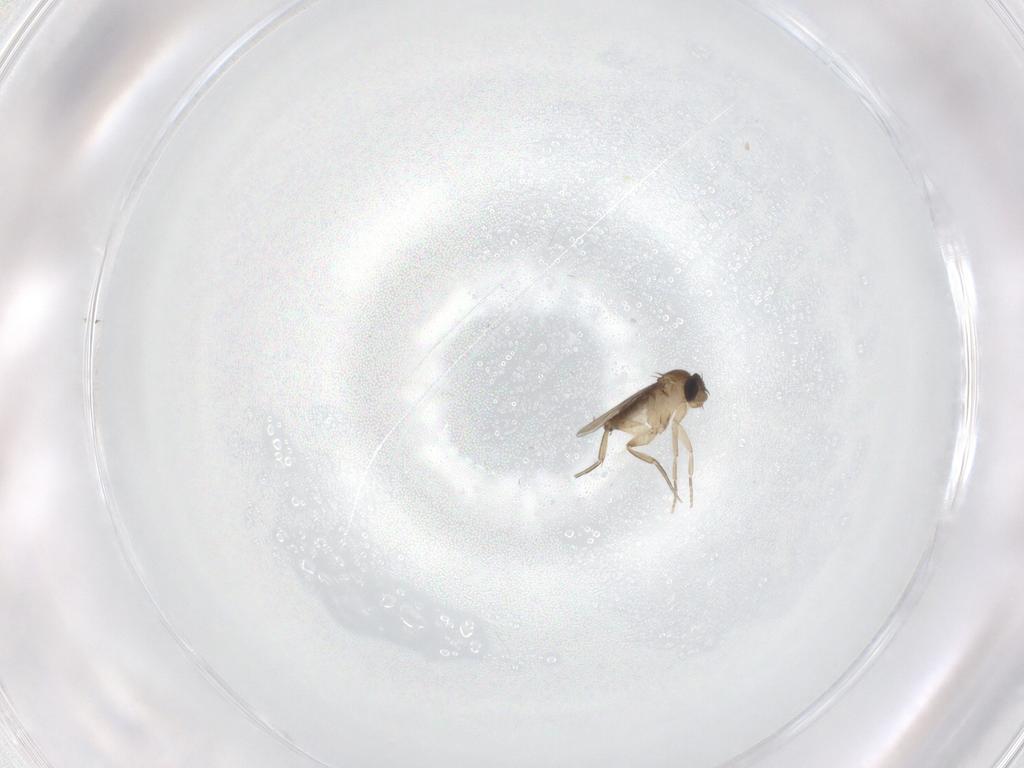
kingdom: Animalia
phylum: Arthropoda
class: Insecta
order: Diptera
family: Phoridae
